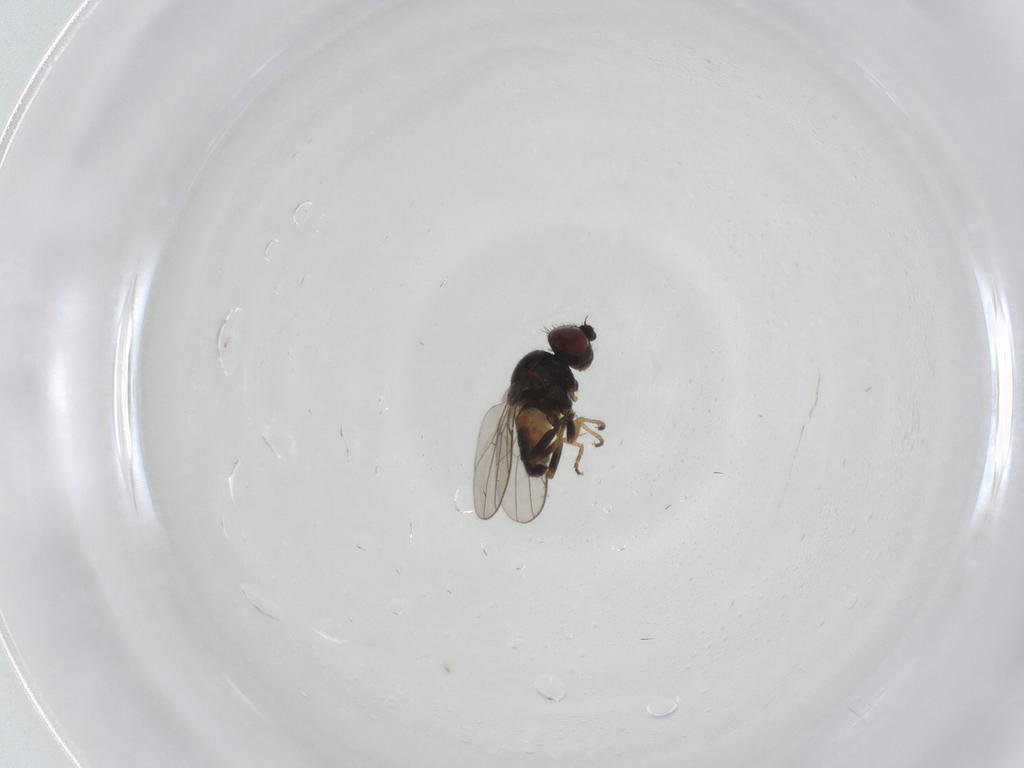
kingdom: Animalia
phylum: Arthropoda
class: Insecta
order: Diptera
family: Chloropidae
